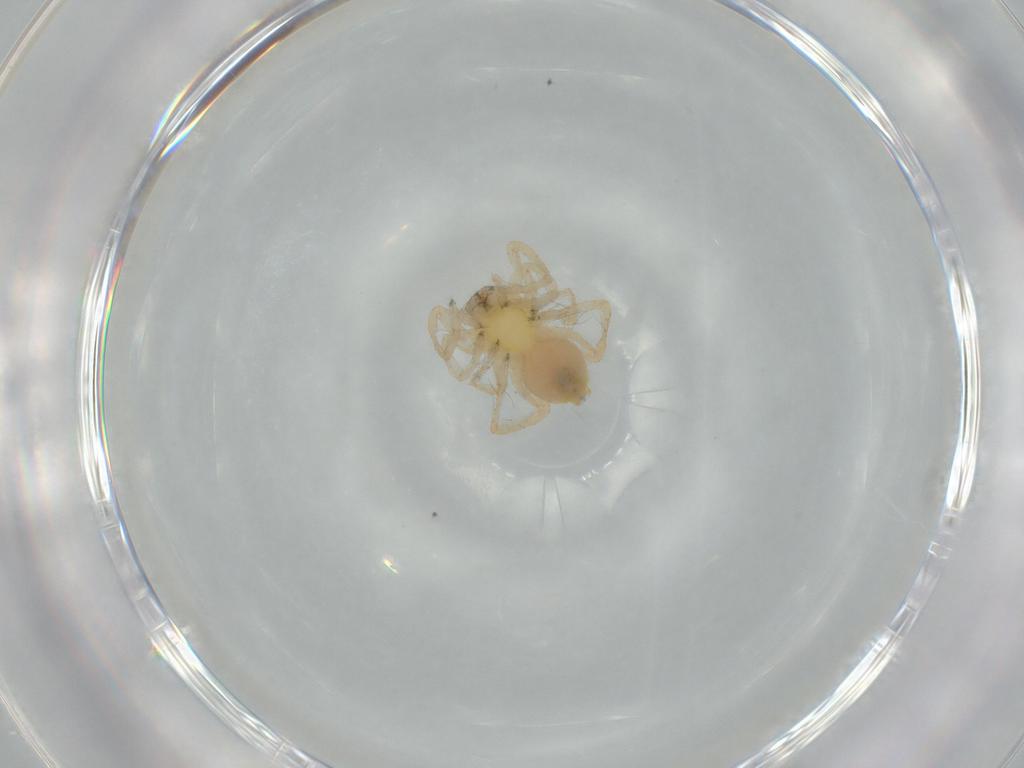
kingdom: Animalia
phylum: Arthropoda
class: Arachnida
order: Araneae
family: Anyphaenidae
